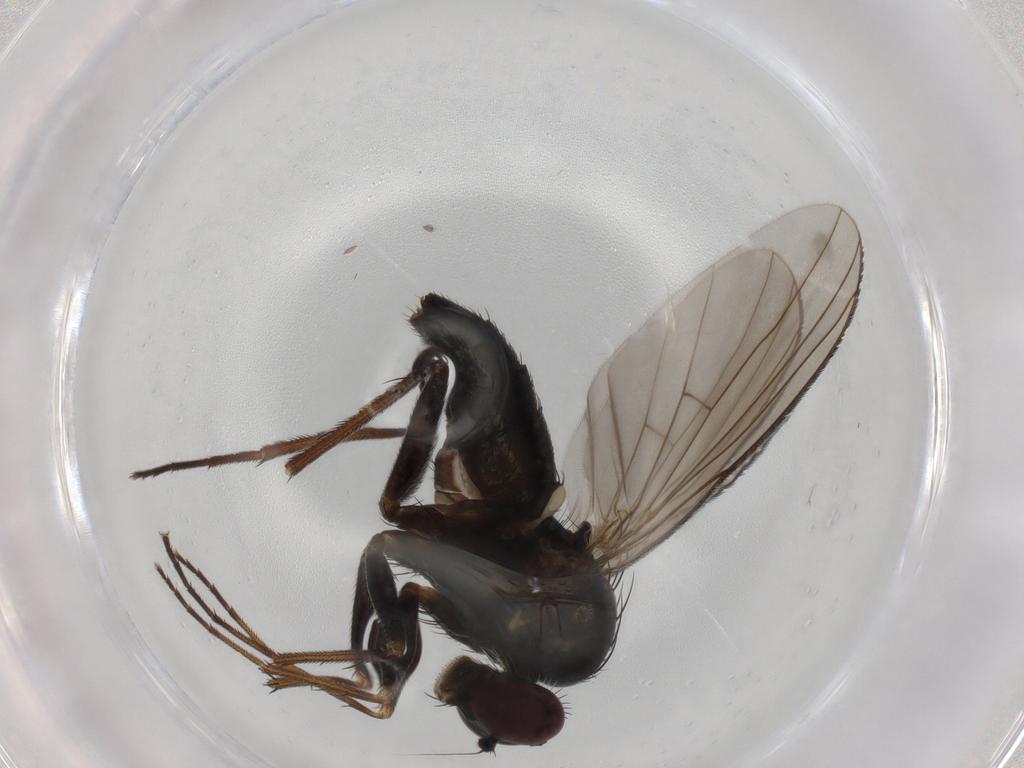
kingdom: Animalia
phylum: Arthropoda
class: Insecta
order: Diptera
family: Dolichopodidae
